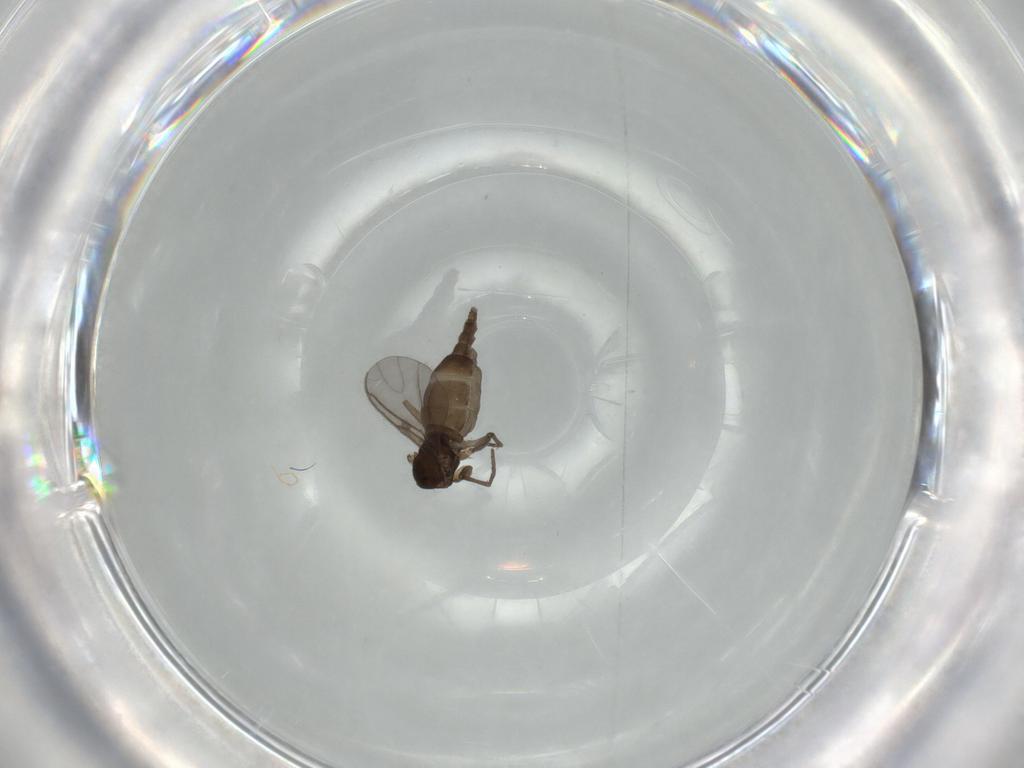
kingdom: Animalia
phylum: Arthropoda
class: Insecta
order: Diptera
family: Sciaridae
